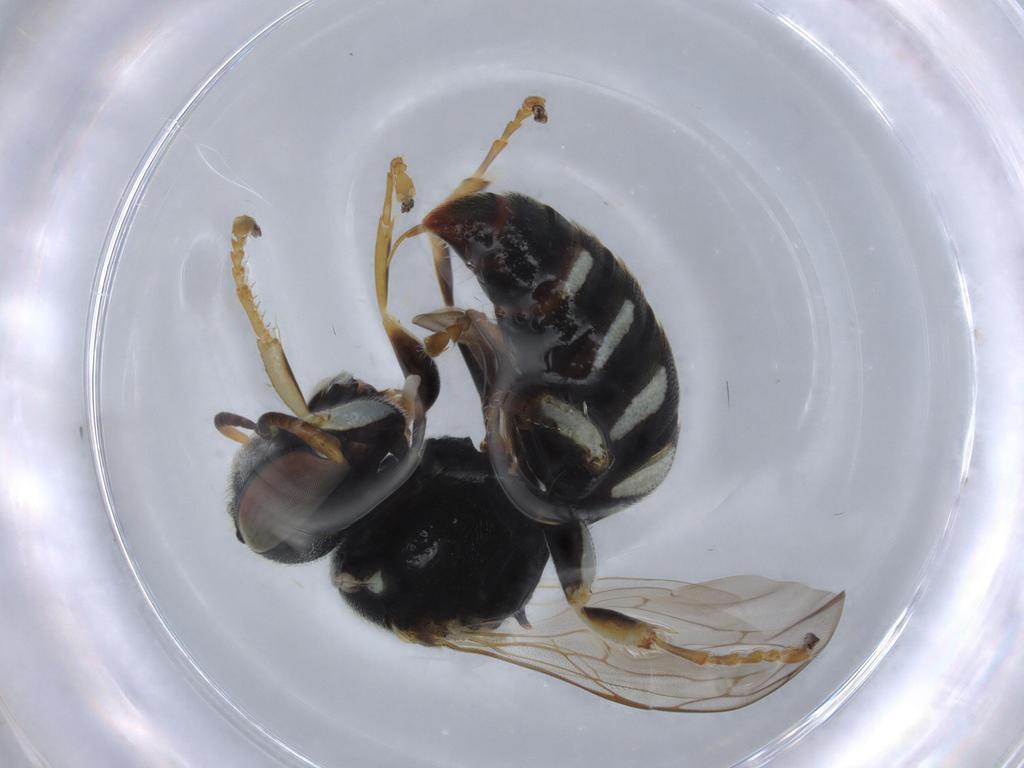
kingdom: Animalia
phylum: Arthropoda
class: Insecta
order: Hymenoptera
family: Crabronidae
